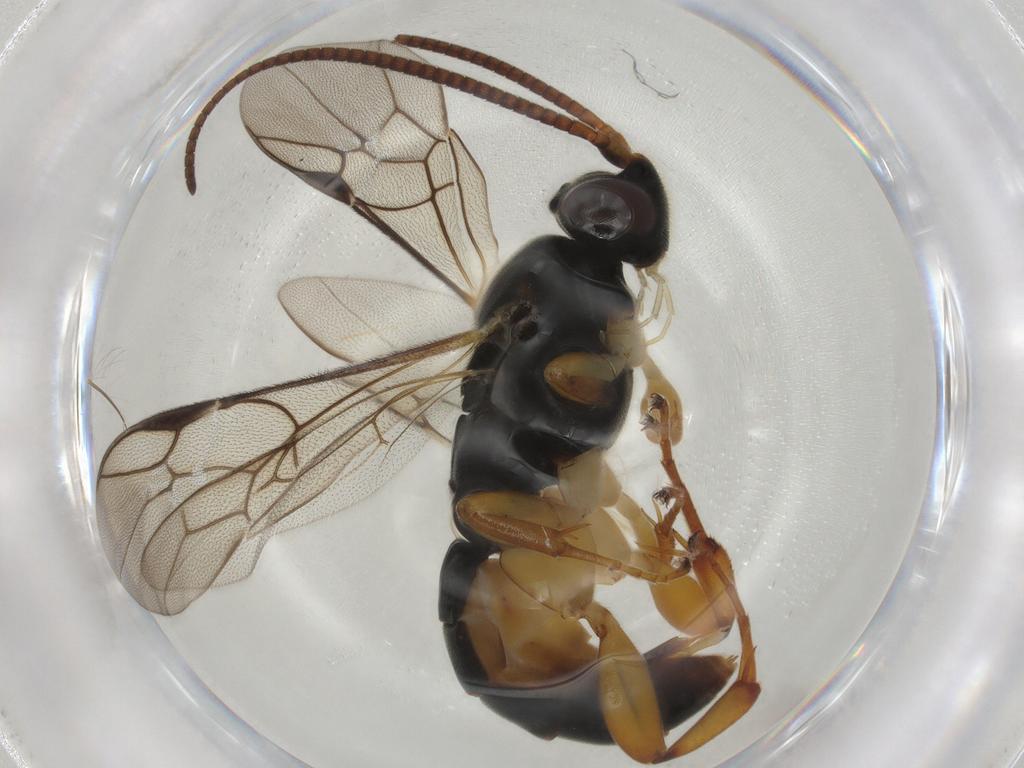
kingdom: Animalia
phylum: Arthropoda
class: Insecta
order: Hymenoptera
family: Ichneumonidae
